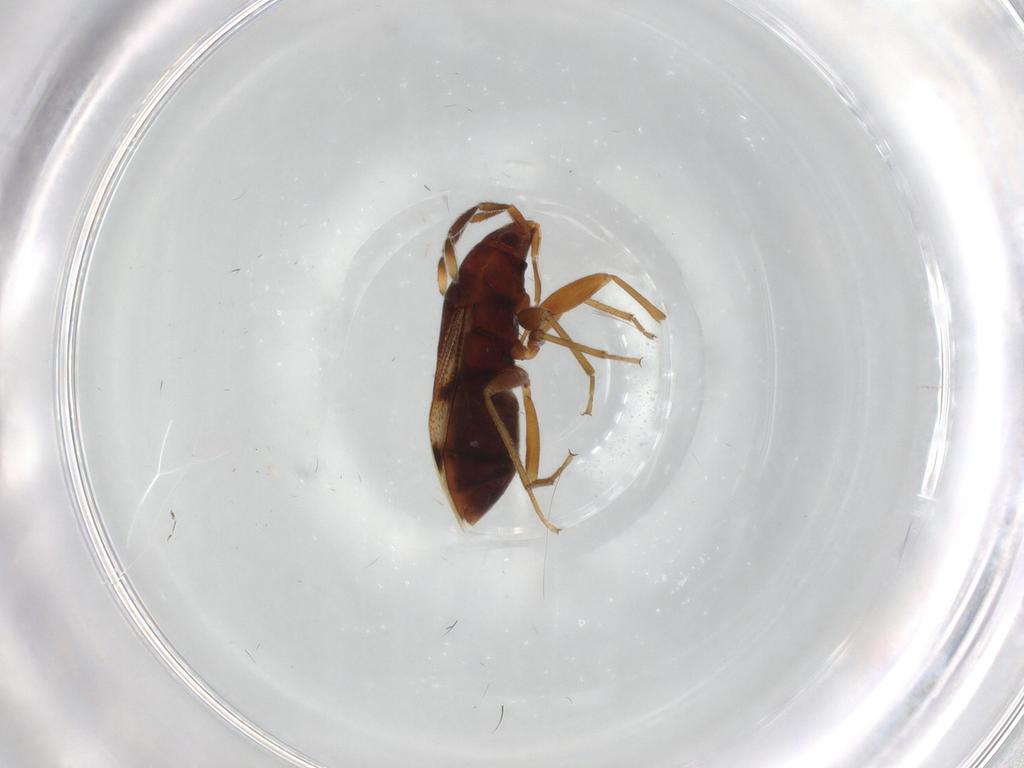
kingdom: Animalia
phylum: Arthropoda
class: Insecta
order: Hemiptera
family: Rhyparochromidae
